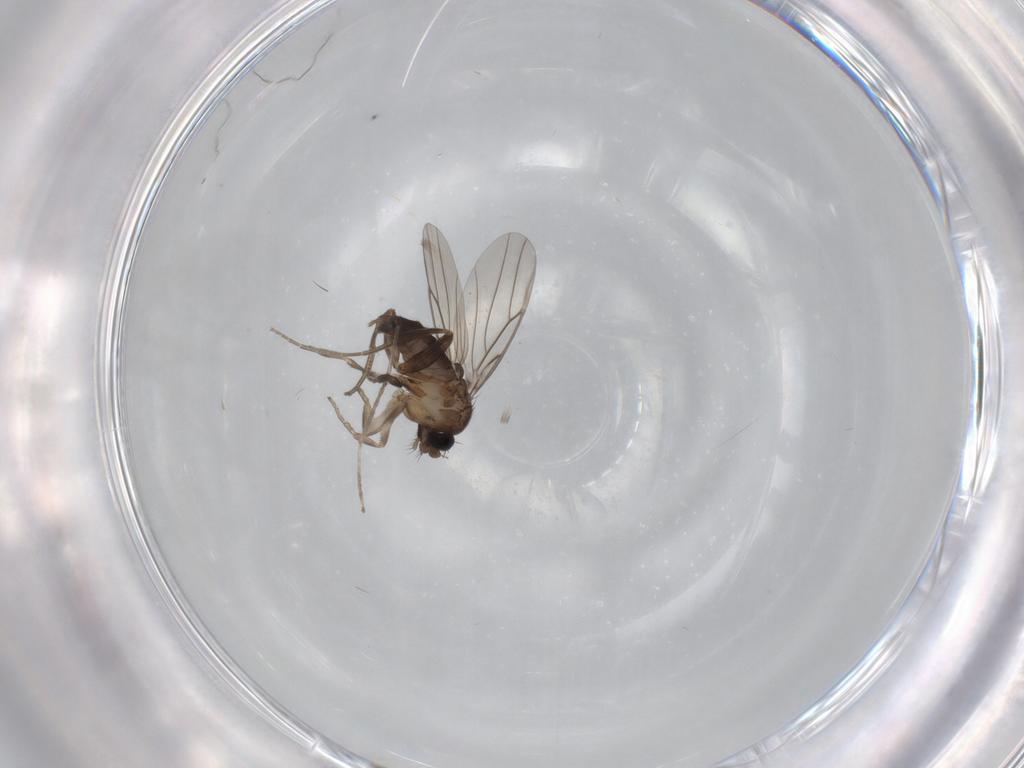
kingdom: Animalia
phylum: Arthropoda
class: Insecta
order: Diptera
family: Phoridae
